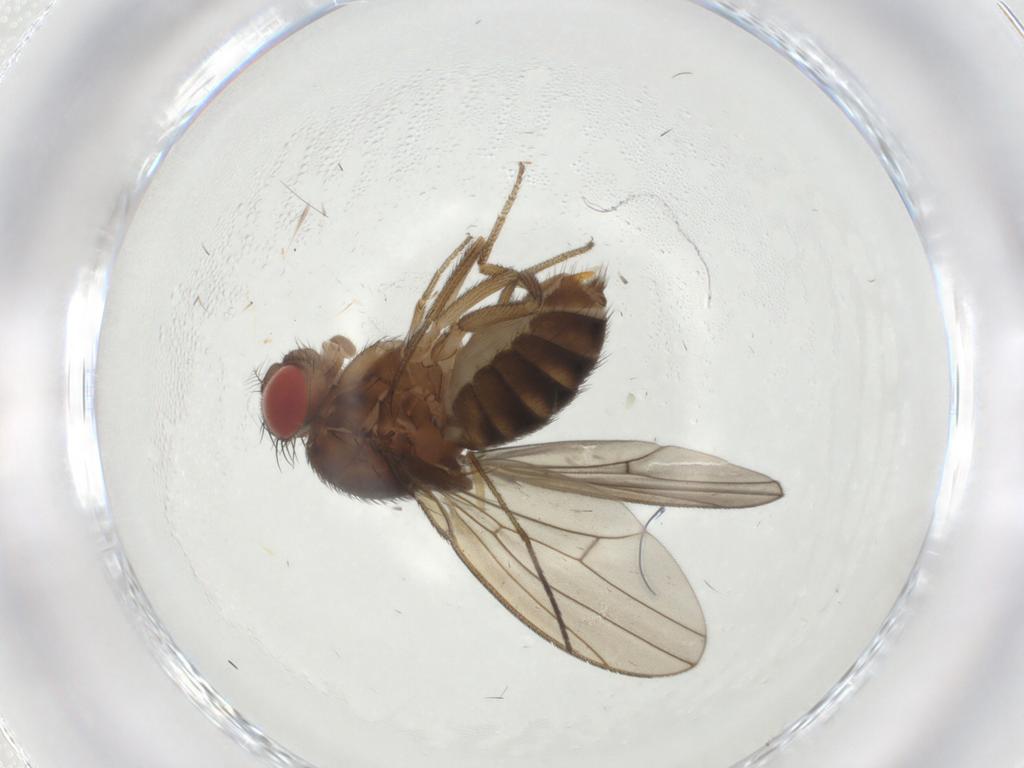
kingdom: Animalia
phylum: Arthropoda
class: Insecta
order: Diptera
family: Drosophilidae
